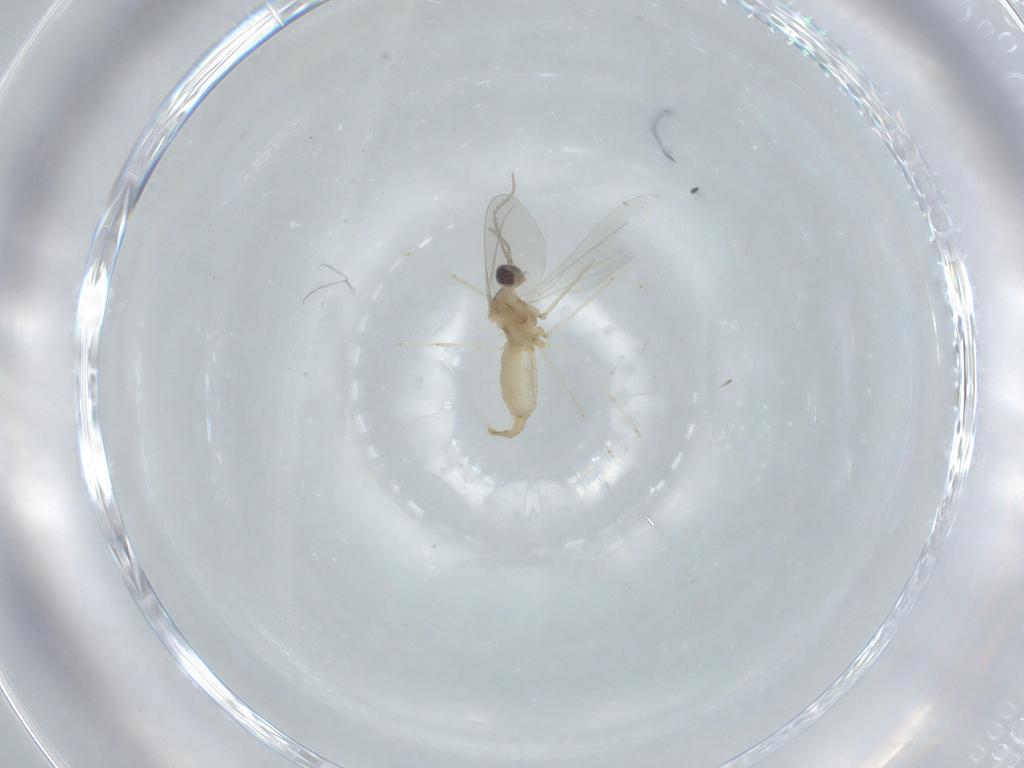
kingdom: Animalia
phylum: Arthropoda
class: Insecta
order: Diptera
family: Cecidomyiidae
